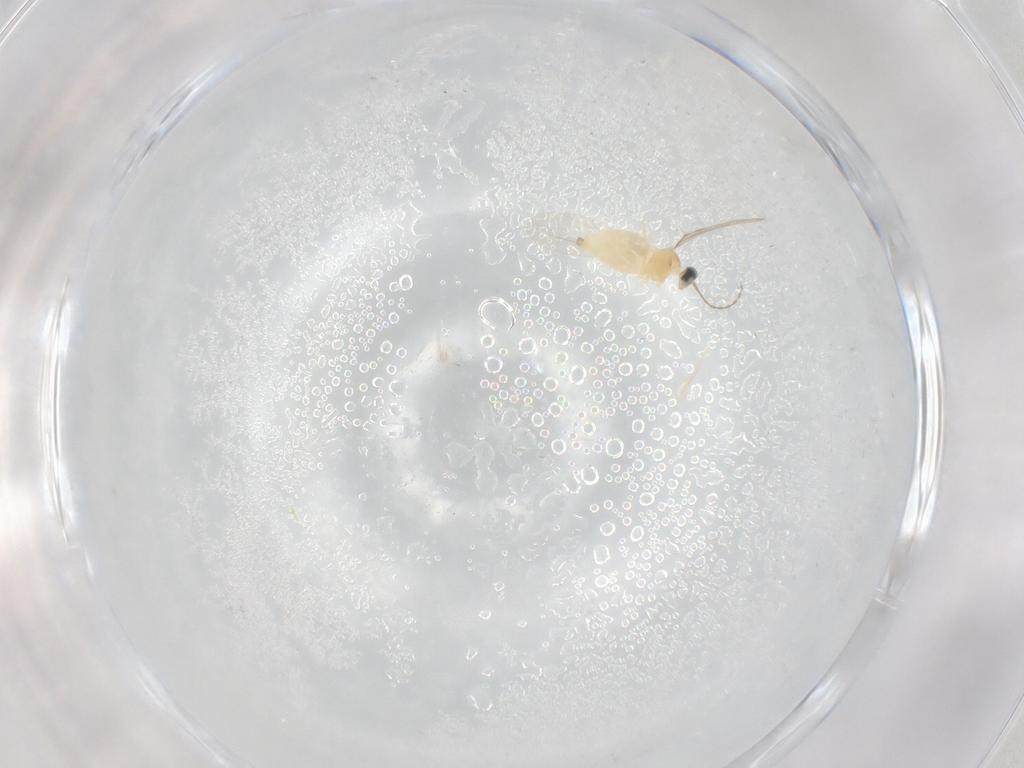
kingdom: Animalia
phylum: Arthropoda
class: Insecta
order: Diptera
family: Cecidomyiidae
